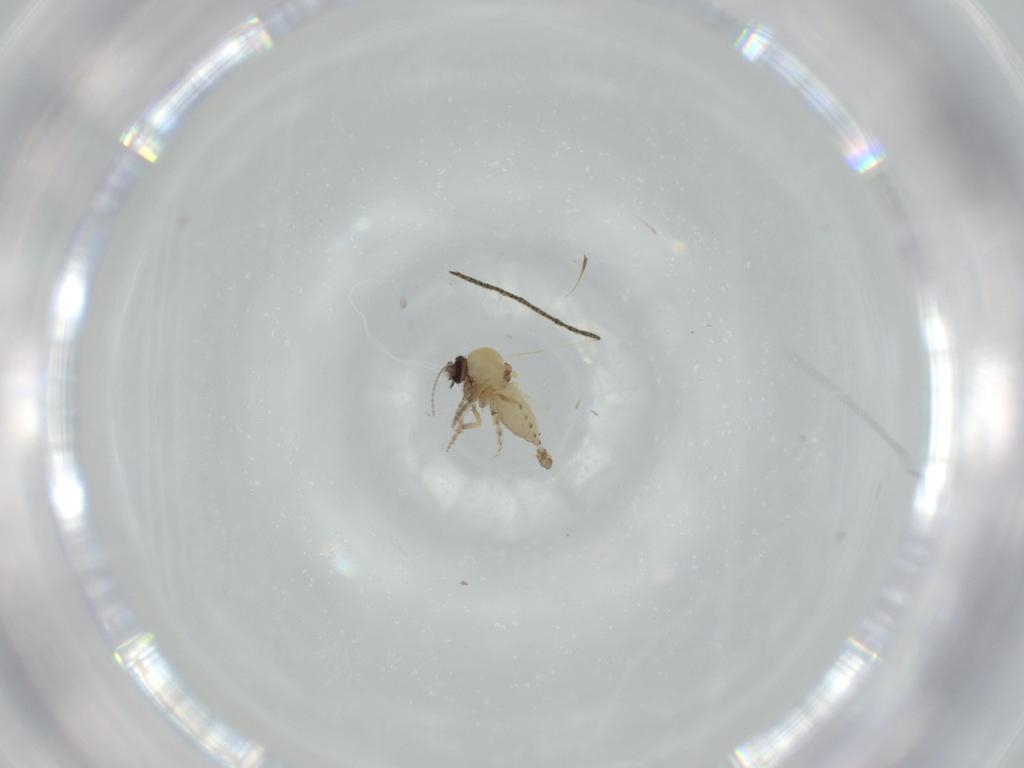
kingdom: Animalia
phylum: Arthropoda
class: Insecta
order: Diptera
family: Ceratopogonidae
